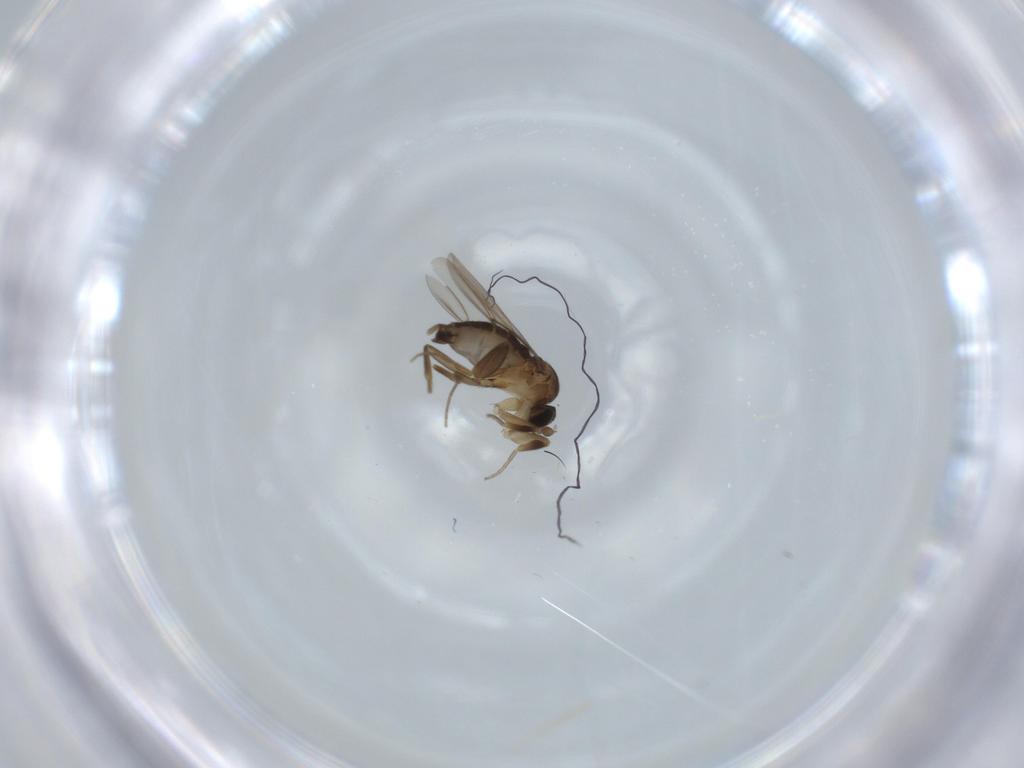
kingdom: Animalia
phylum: Arthropoda
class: Insecta
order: Diptera
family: Phoridae
